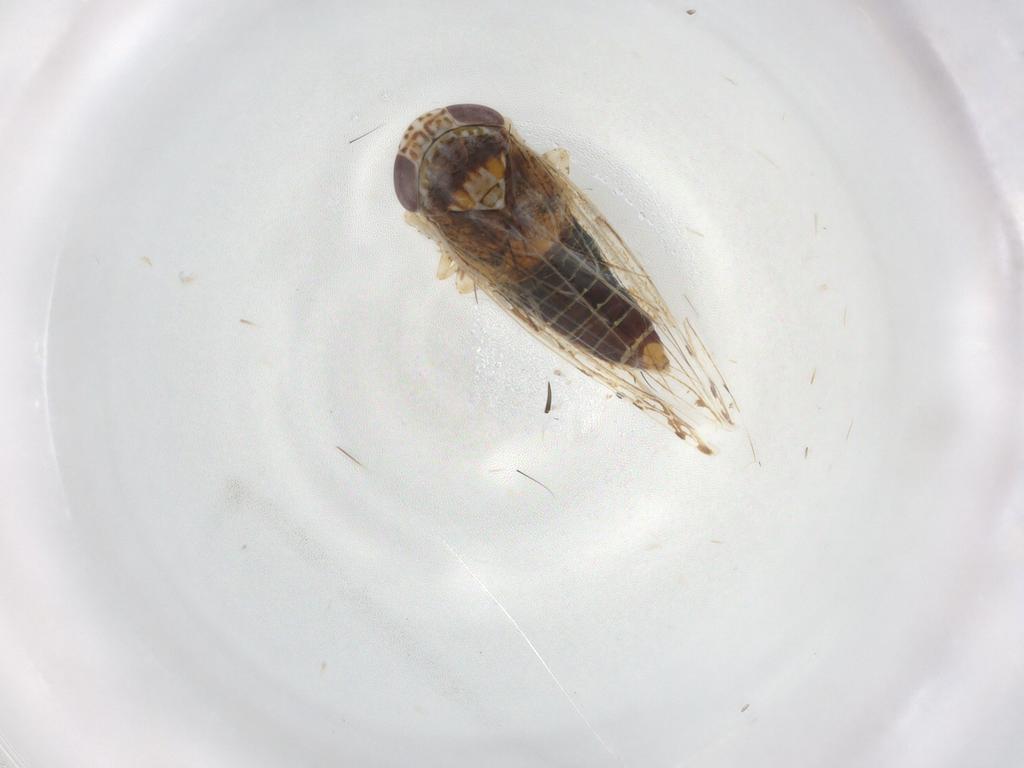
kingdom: Animalia
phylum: Arthropoda
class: Insecta
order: Hemiptera
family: Cicadellidae
